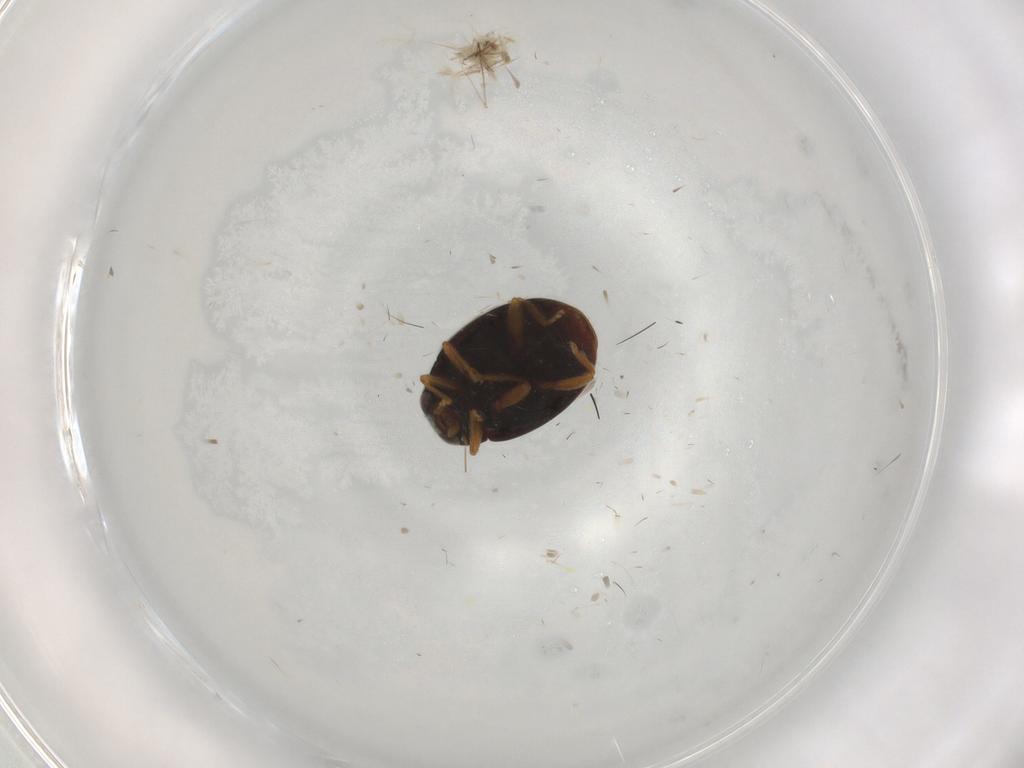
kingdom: Animalia
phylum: Arthropoda
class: Insecta
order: Coleoptera
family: Coccinellidae
